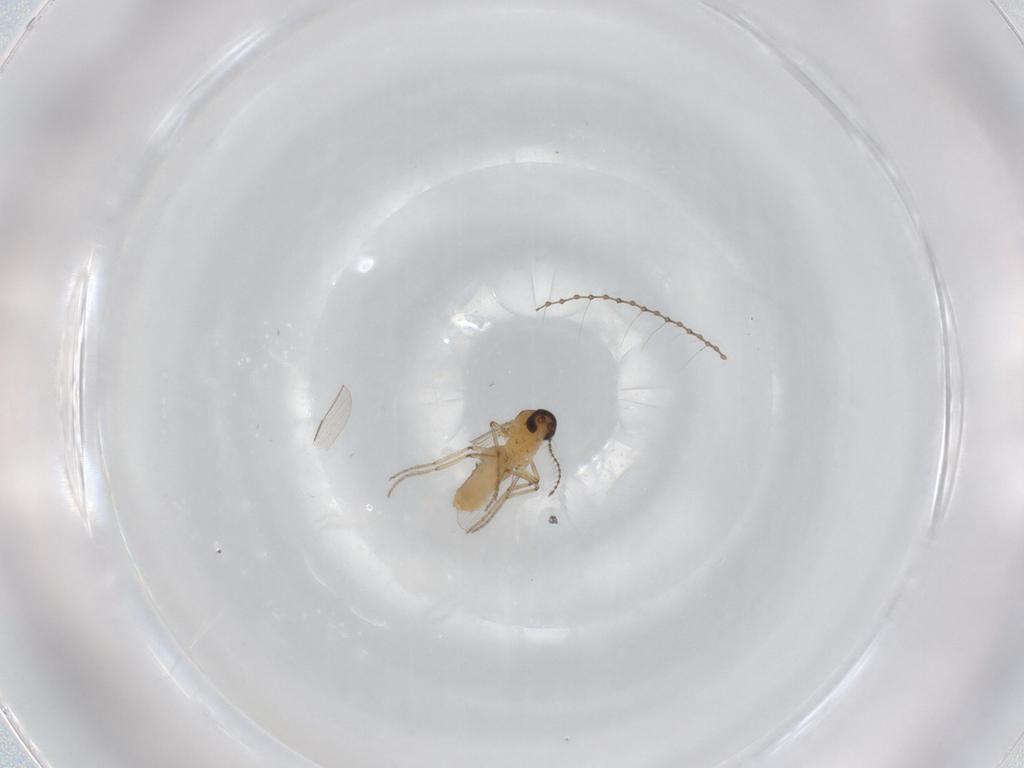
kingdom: Animalia
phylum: Arthropoda
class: Insecta
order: Diptera
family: Ceratopogonidae
